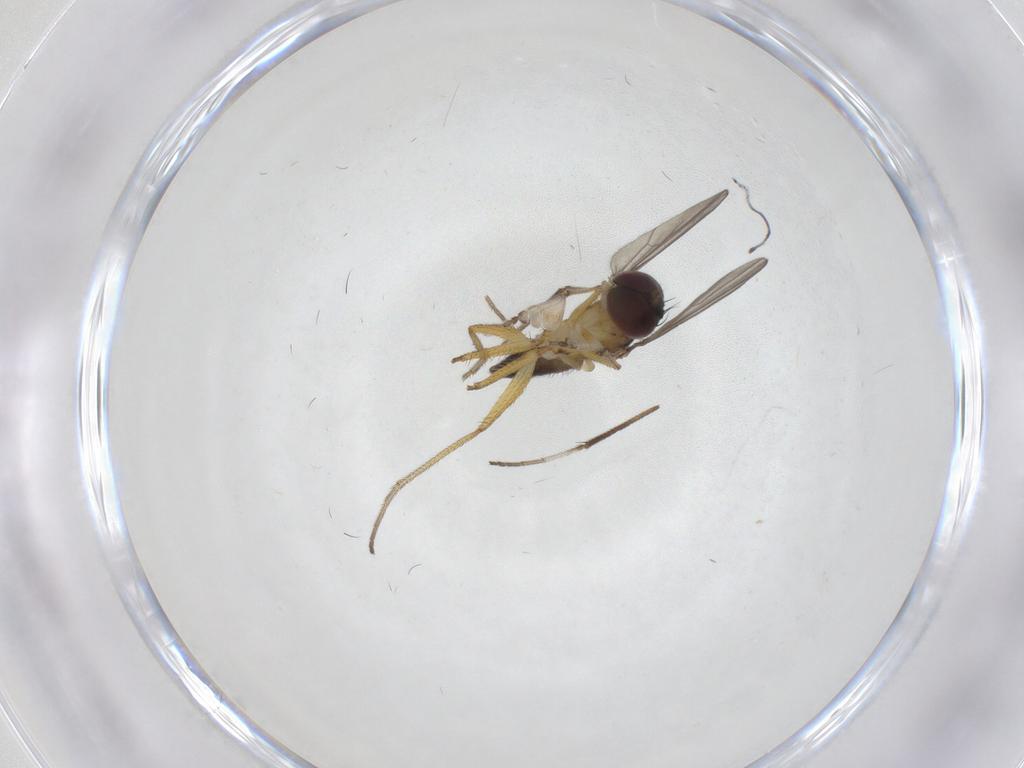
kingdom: Animalia
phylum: Arthropoda
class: Insecta
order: Diptera
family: Dolichopodidae
